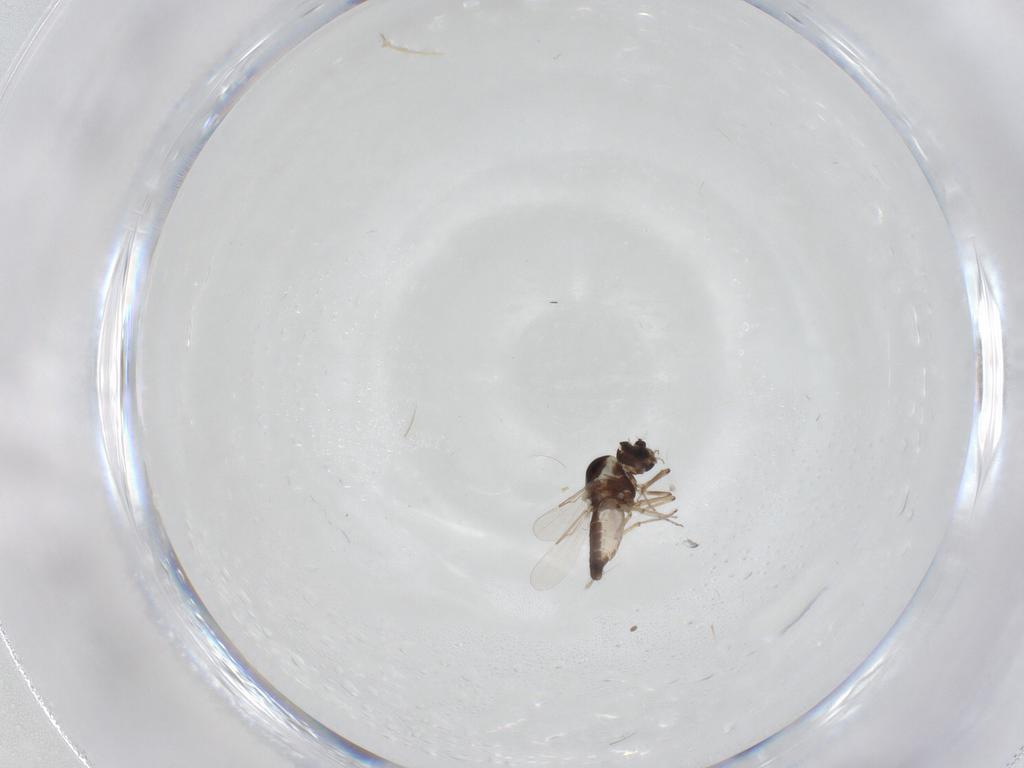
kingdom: Animalia
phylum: Arthropoda
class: Insecta
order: Diptera
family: Ceratopogonidae
